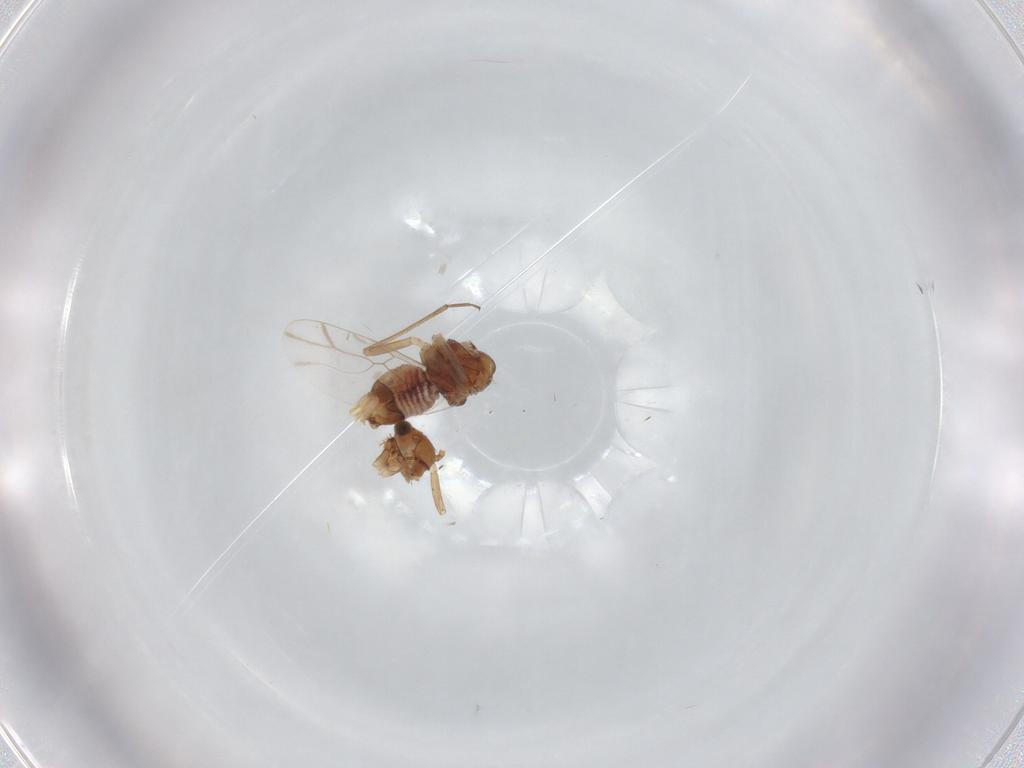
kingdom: Animalia
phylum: Arthropoda
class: Insecta
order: Psocodea
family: Lachesillidae
